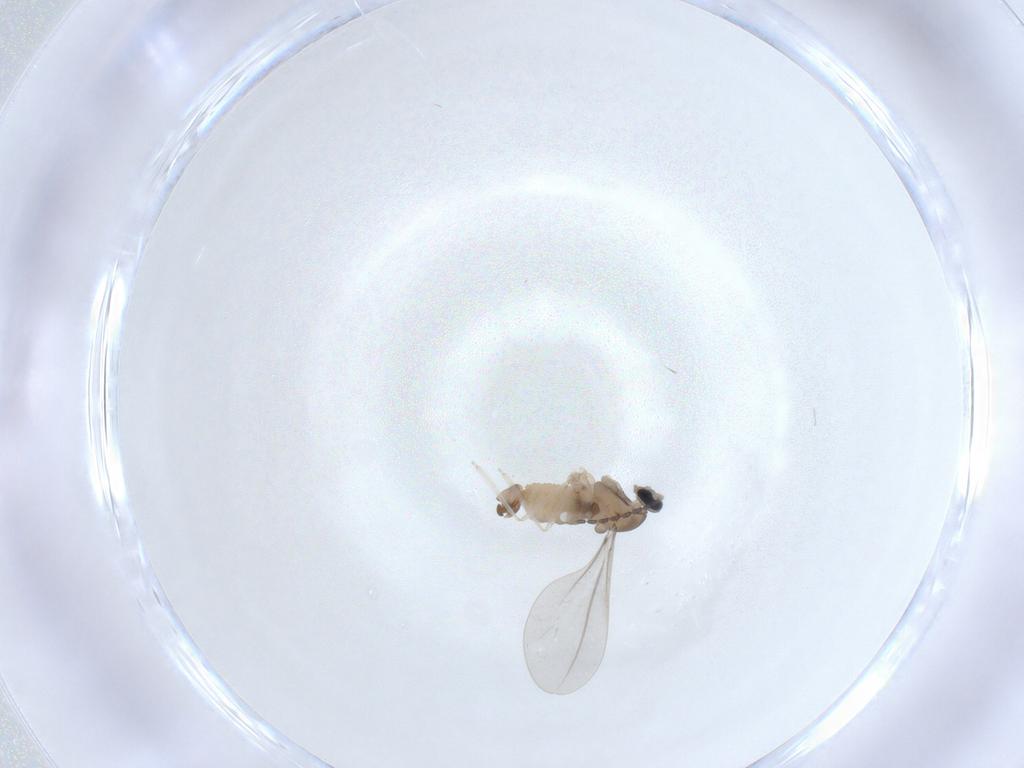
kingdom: Animalia
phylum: Arthropoda
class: Insecta
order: Diptera
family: Cecidomyiidae
